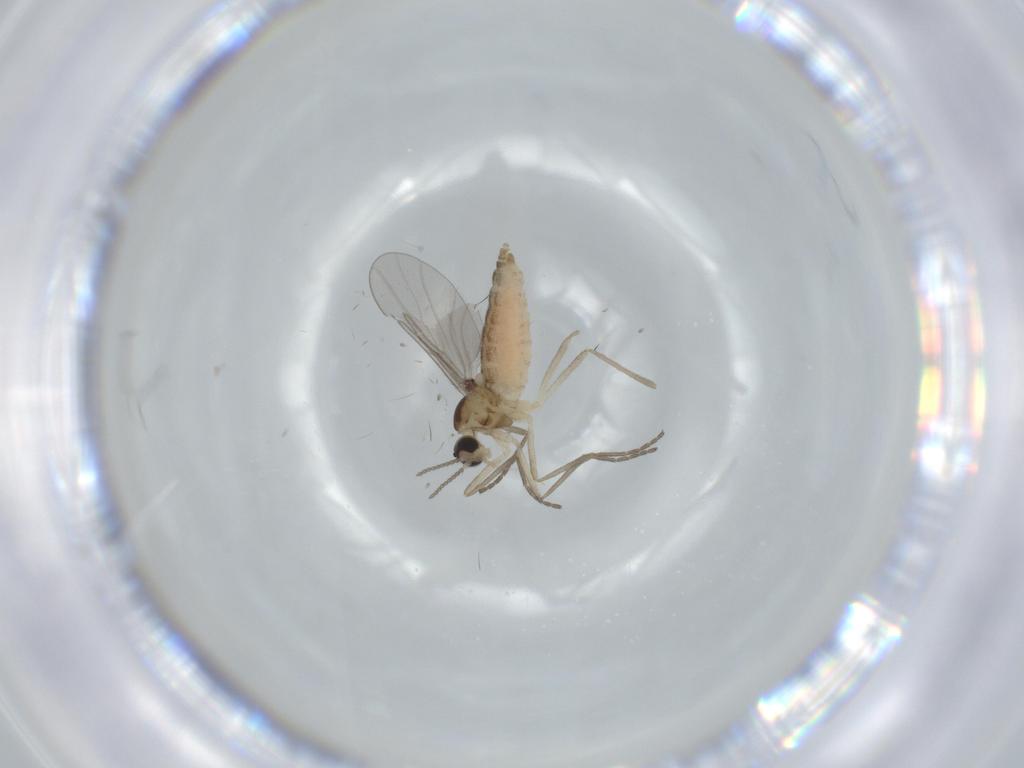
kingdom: Animalia
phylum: Arthropoda
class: Insecta
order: Diptera
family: Cecidomyiidae
